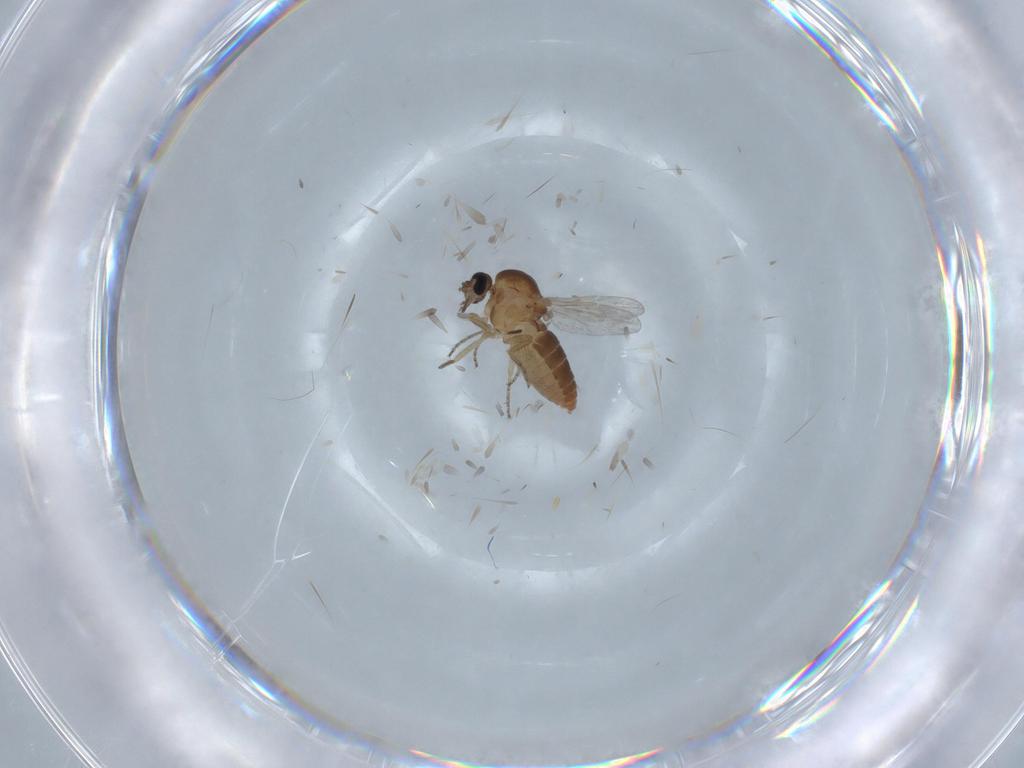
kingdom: Animalia
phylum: Arthropoda
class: Insecta
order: Diptera
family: Ceratopogonidae
